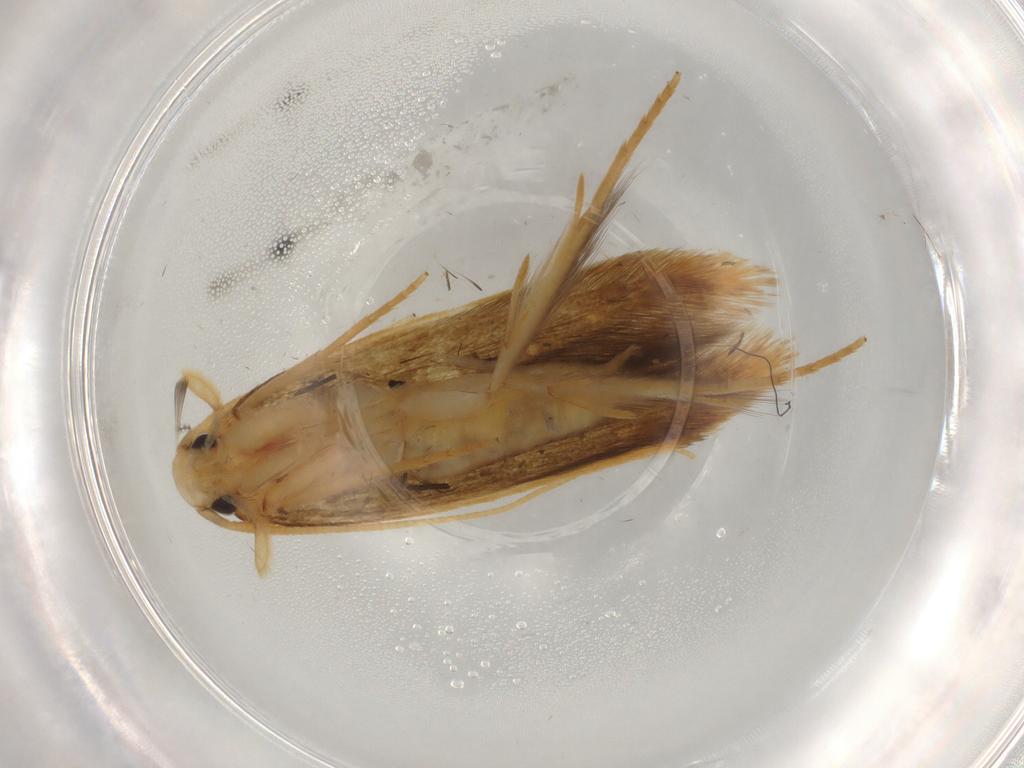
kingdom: Animalia
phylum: Arthropoda
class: Insecta
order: Lepidoptera
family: Tineidae
